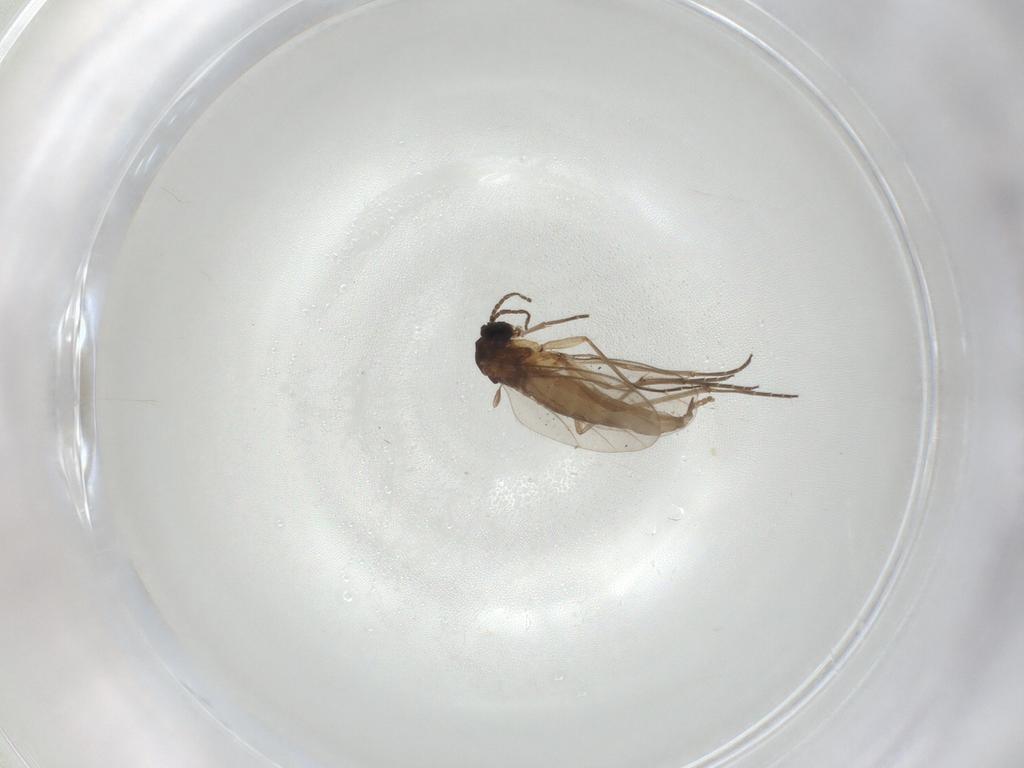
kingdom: Animalia
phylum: Arthropoda
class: Insecta
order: Diptera
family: Sciaridae
